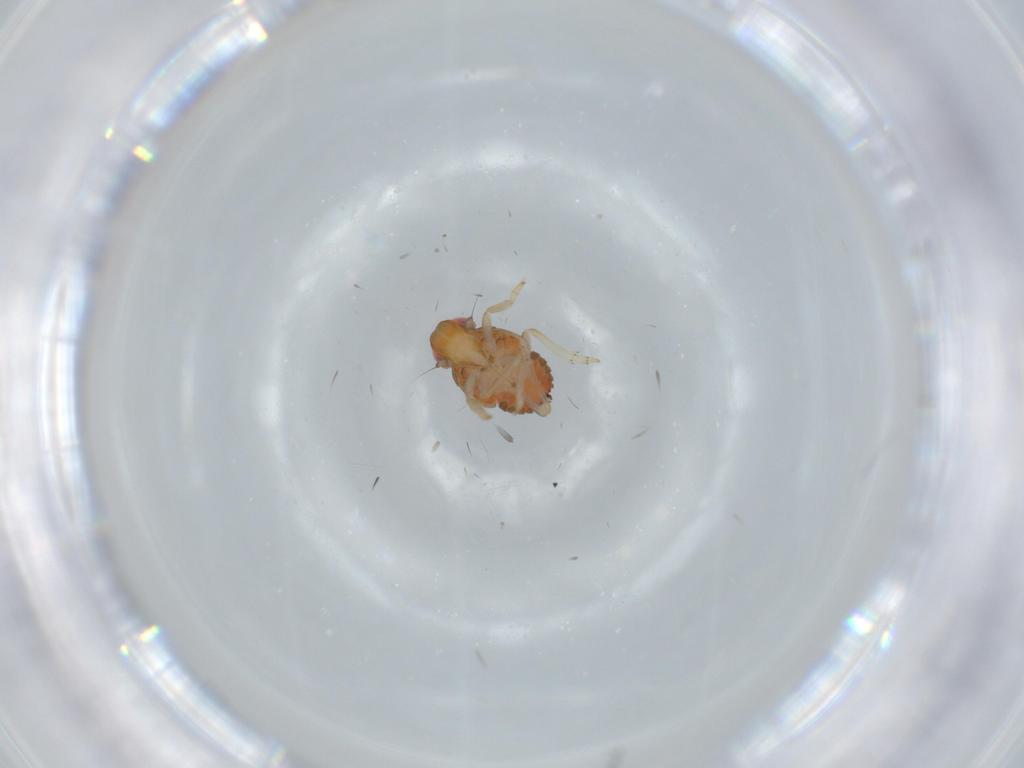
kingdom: Animalia
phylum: Arthropoda
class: Insecta
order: Hemiptera
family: Issidae
